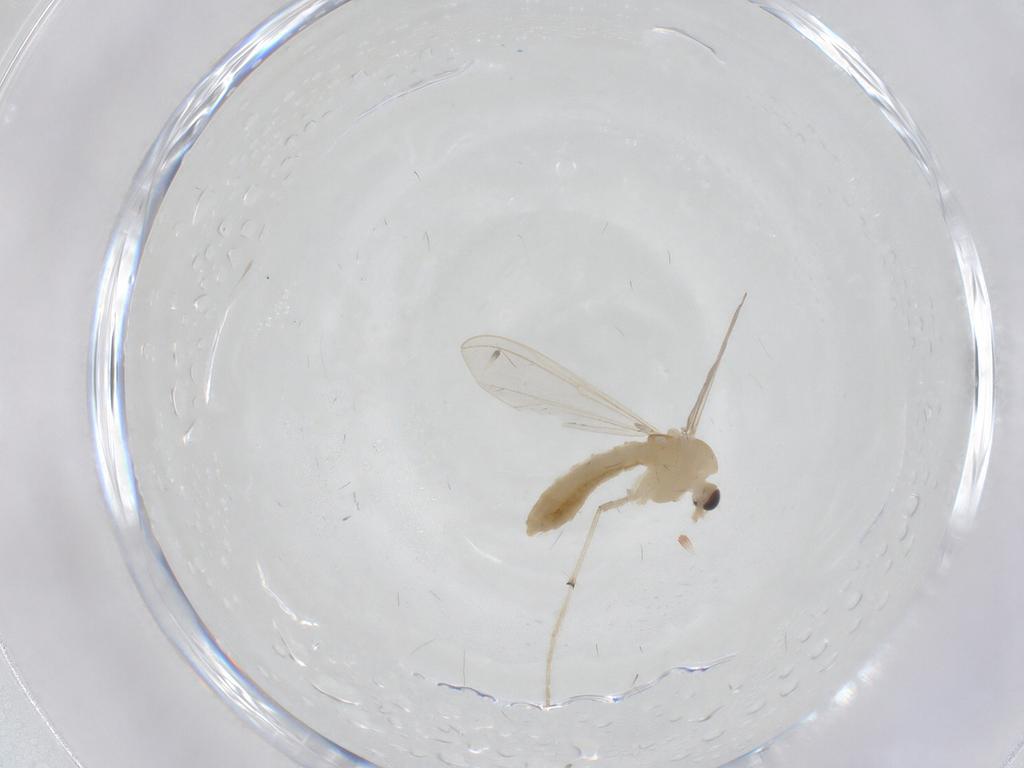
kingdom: Animalia
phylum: Arthropoda
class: Insecta
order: Diptera
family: Chironomidae
